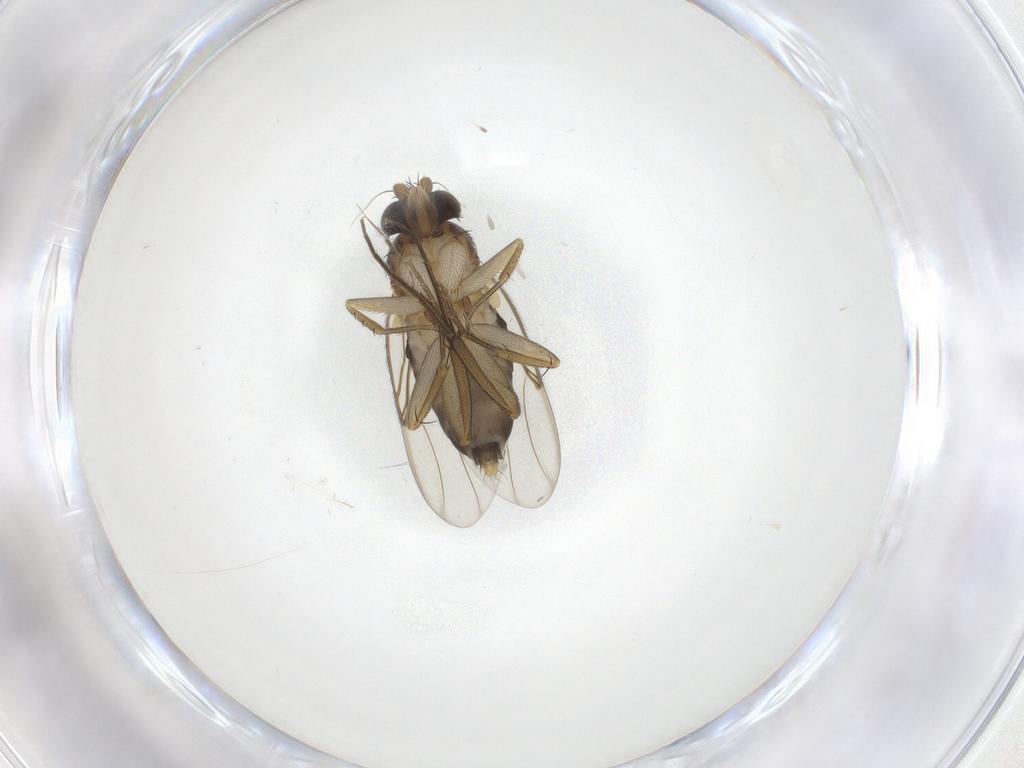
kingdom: Animalia
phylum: Arthropoda
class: Insecta
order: Diptera
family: Phoridae
